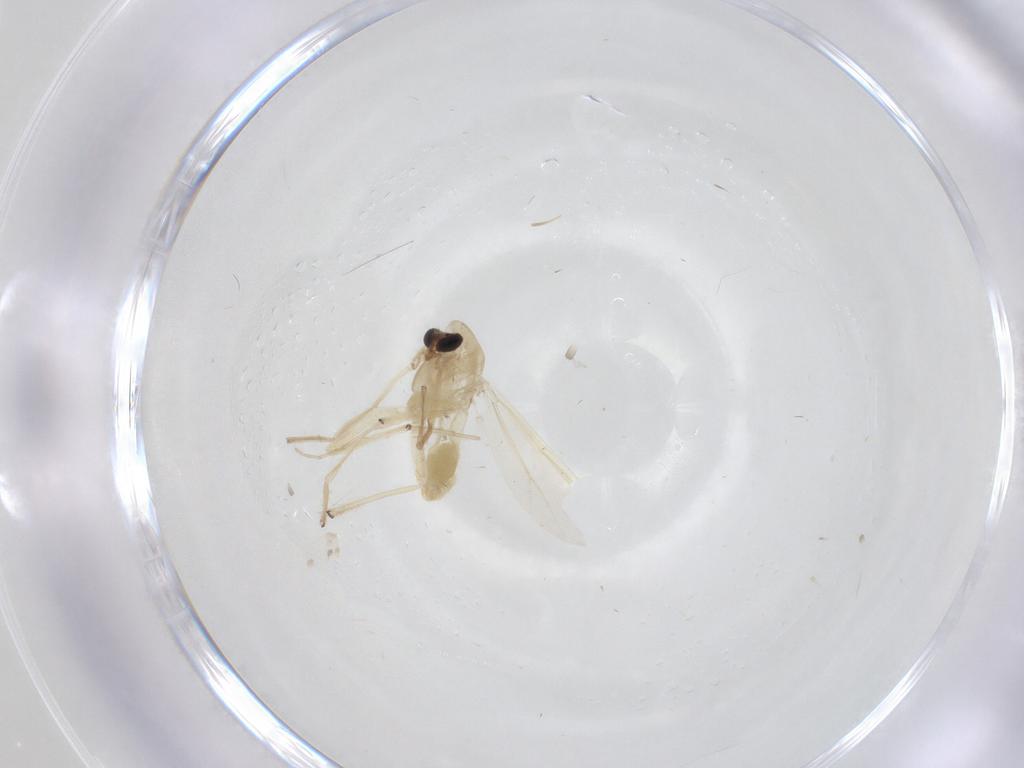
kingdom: Animalia
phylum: Arthropoda
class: Insecta
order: Diptera
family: Chironomidae
